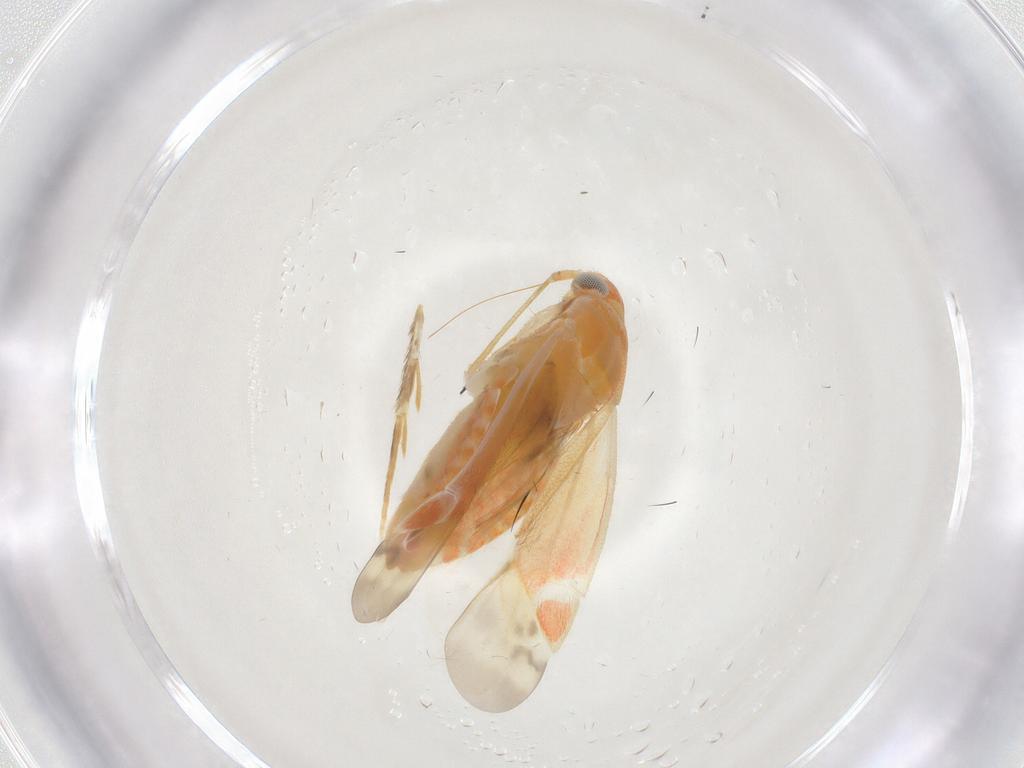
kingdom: Animalia
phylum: Arthropoda
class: Insecta
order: Hemiptera
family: Miridae
